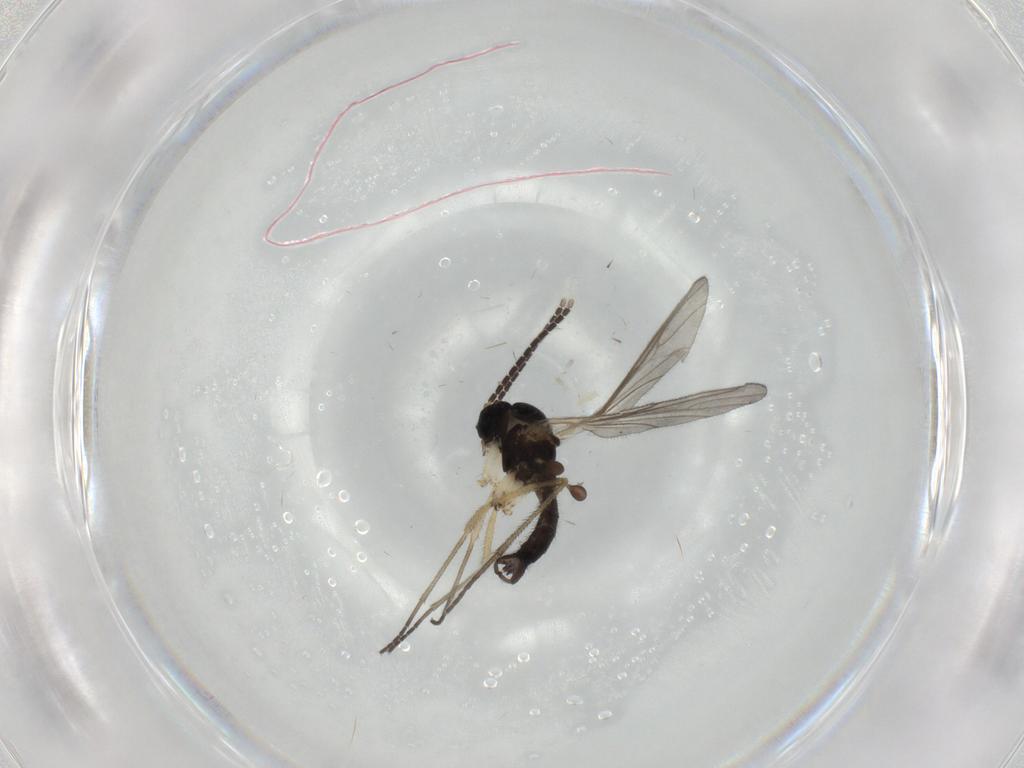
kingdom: Animalia
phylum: Arthropoda
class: Insecta
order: Diptera
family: Sciaridae
